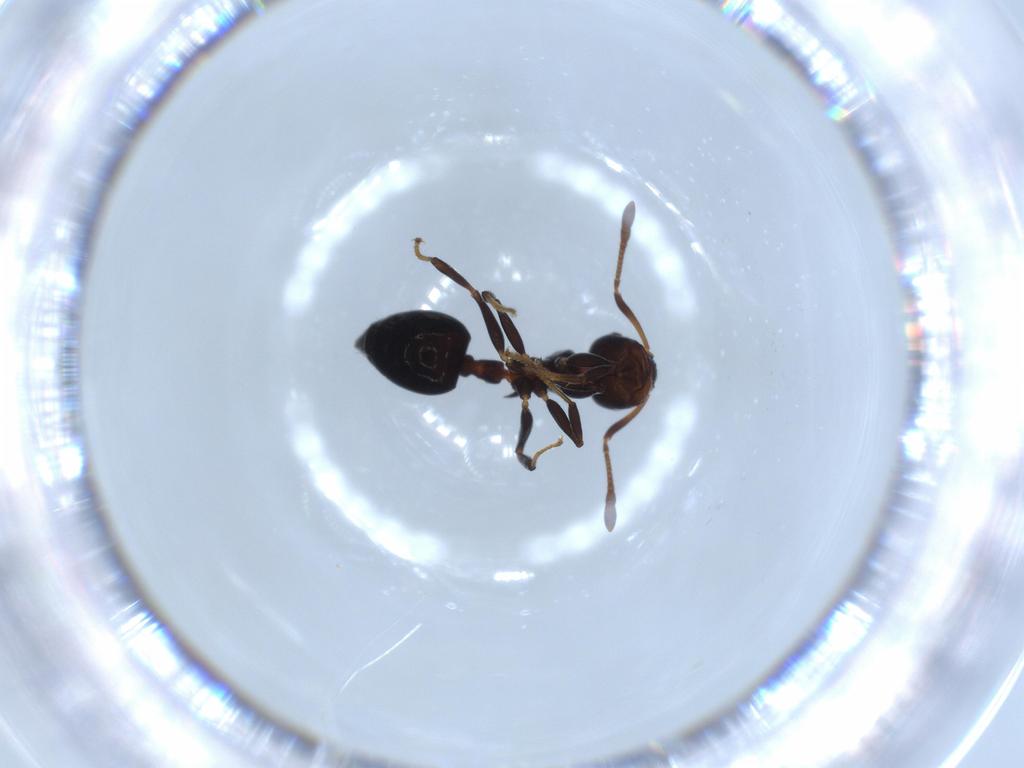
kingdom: Animalia
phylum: Arthropoda
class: Insecta
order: Hymenoptera
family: Formicidae
